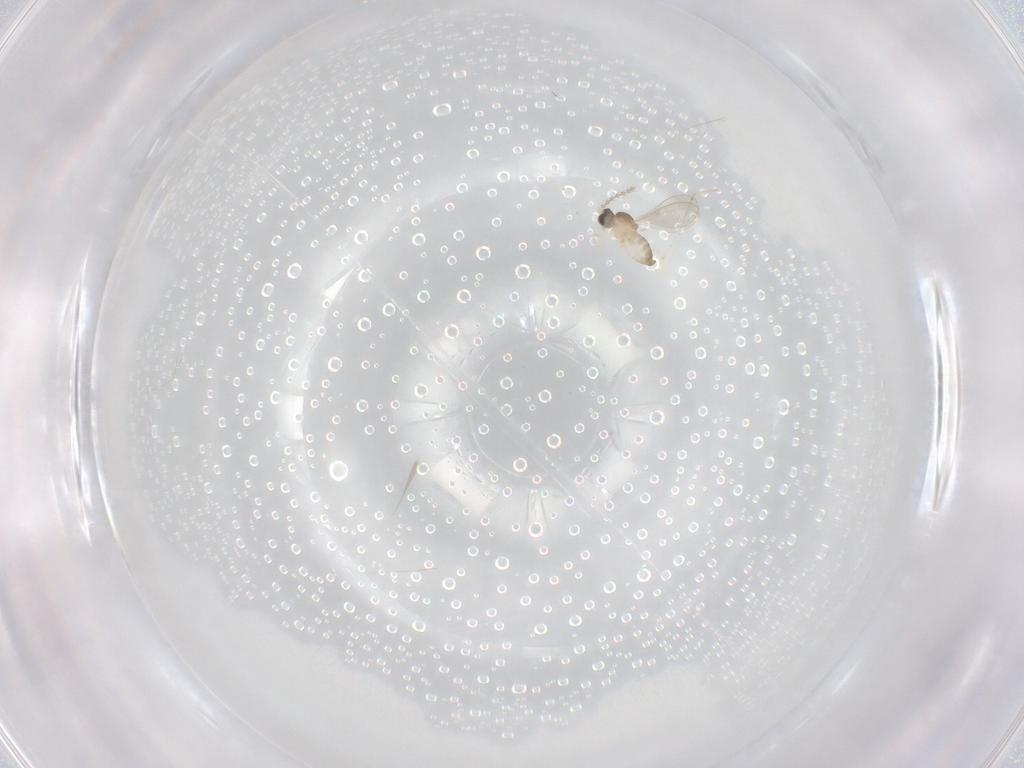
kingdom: Animalia
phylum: Arthropoda
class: Insecta
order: Diptera
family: Cecidomyiidae
